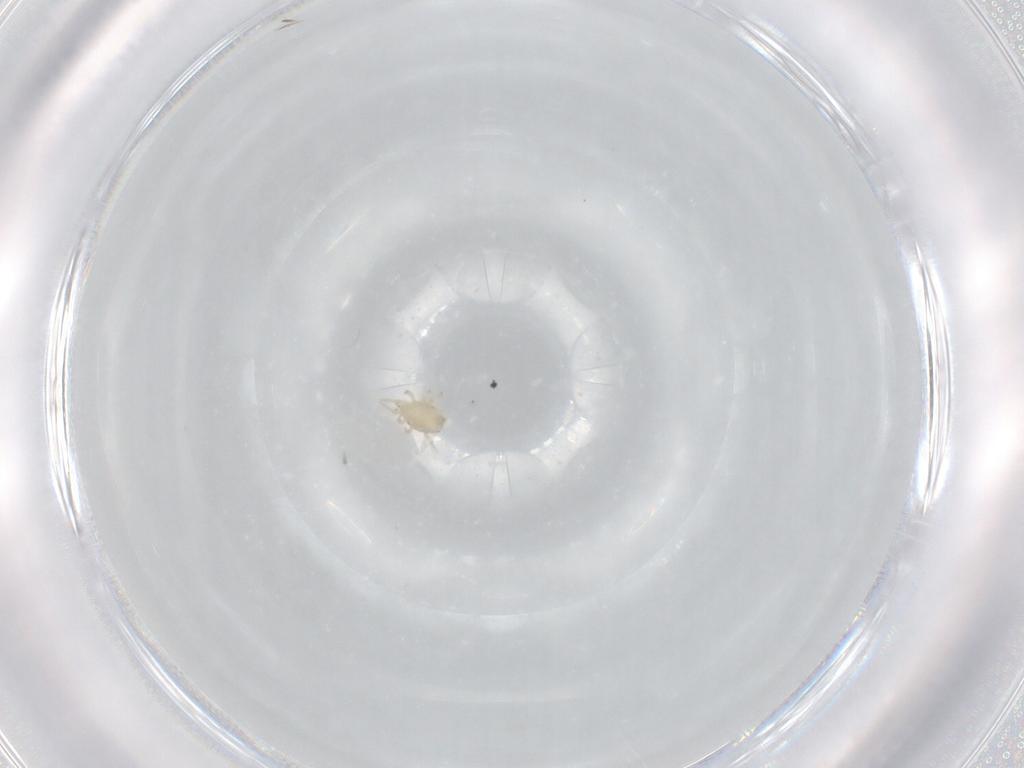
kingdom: Animalia
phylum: Arthropoda
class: Arachnida
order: Mesostigmata
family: Phytoseiidae
